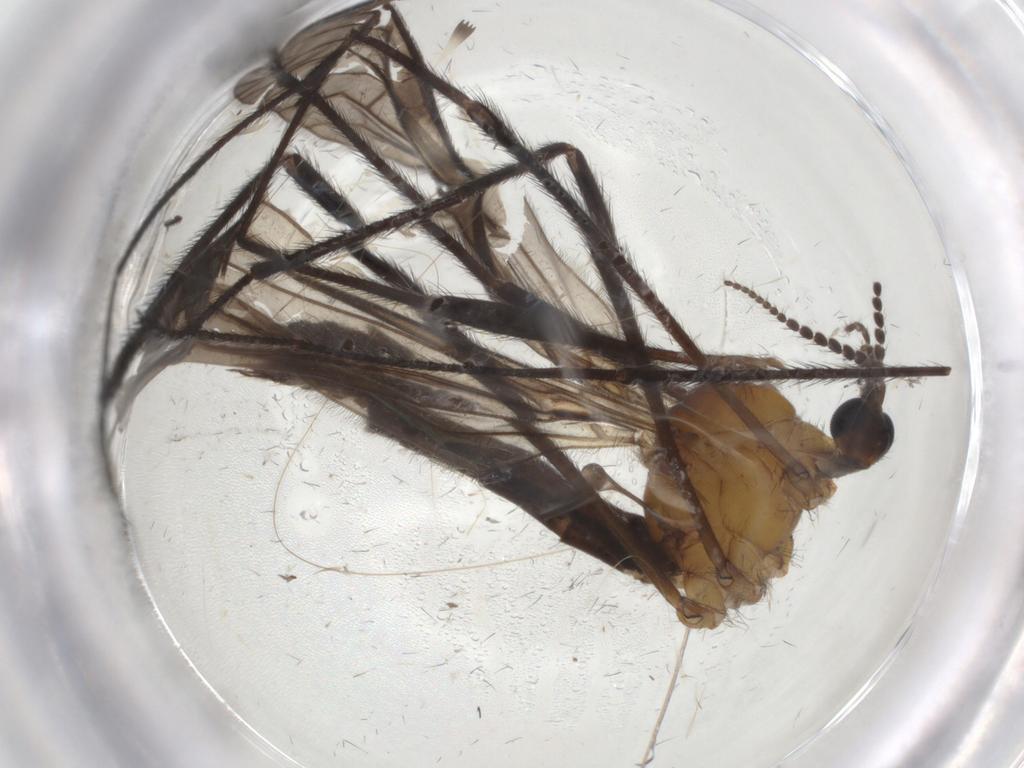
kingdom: Animalia
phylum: Arthropoda
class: Insecta
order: Diptera
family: Limoniidae
